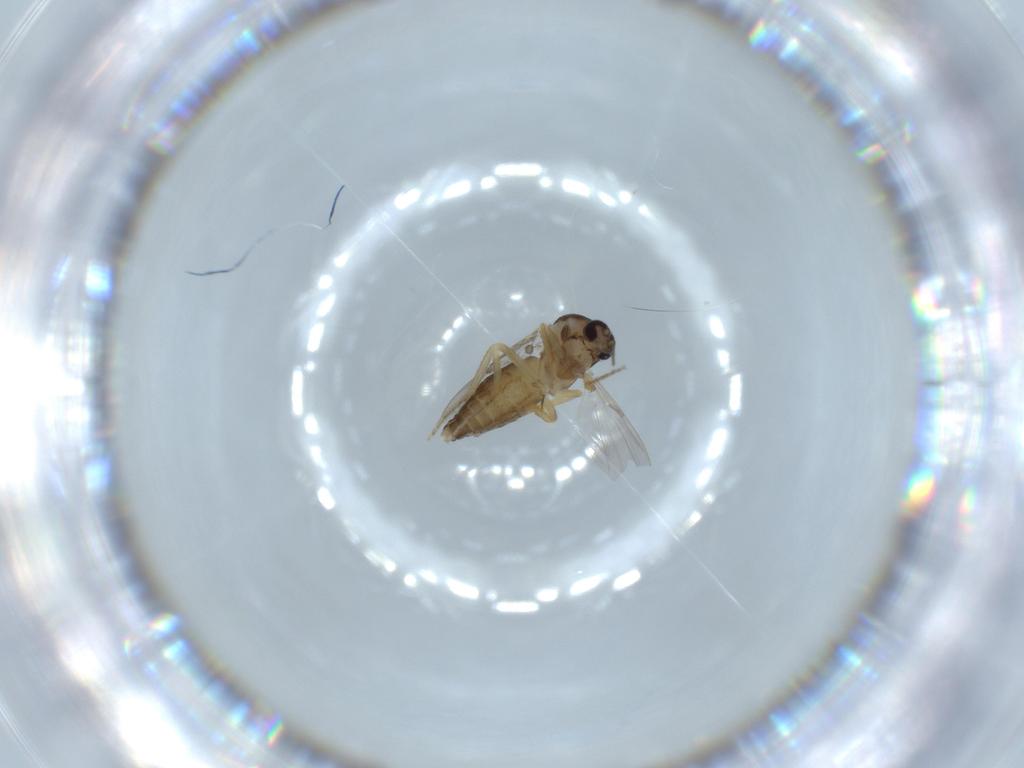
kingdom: Animalia
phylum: Arthropoda
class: Insecta
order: Diptera
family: Ceratopogonidae
